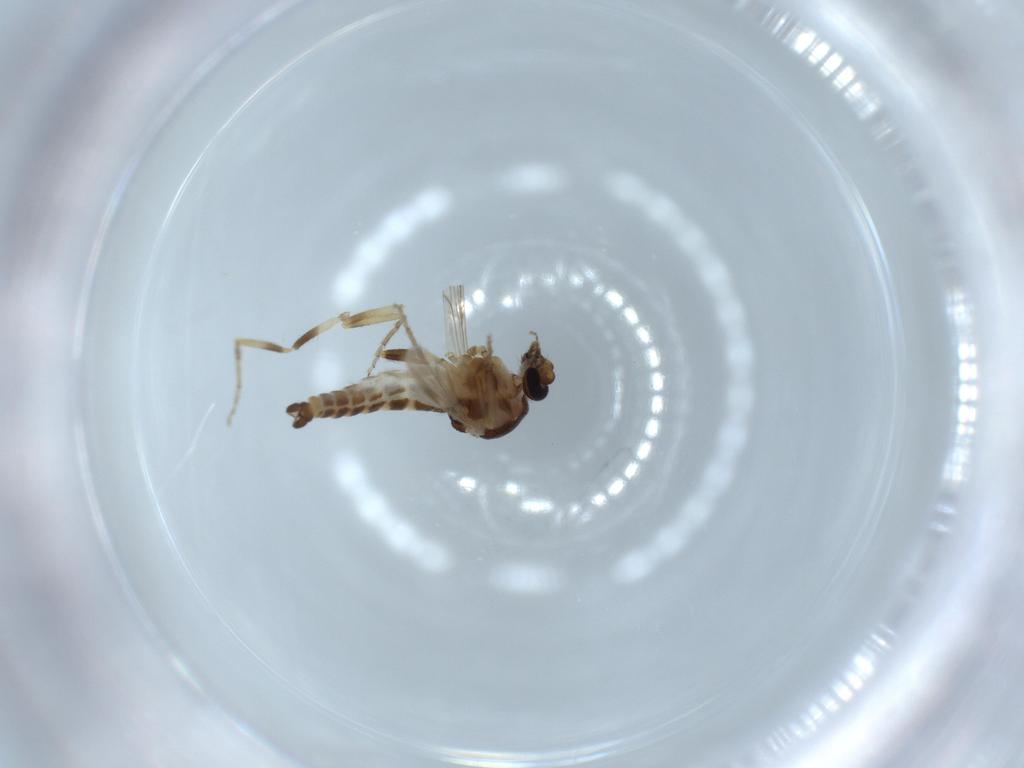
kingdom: Animalia
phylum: Arthropoda
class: Insecta
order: Diptera
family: Ceratopogonidae
